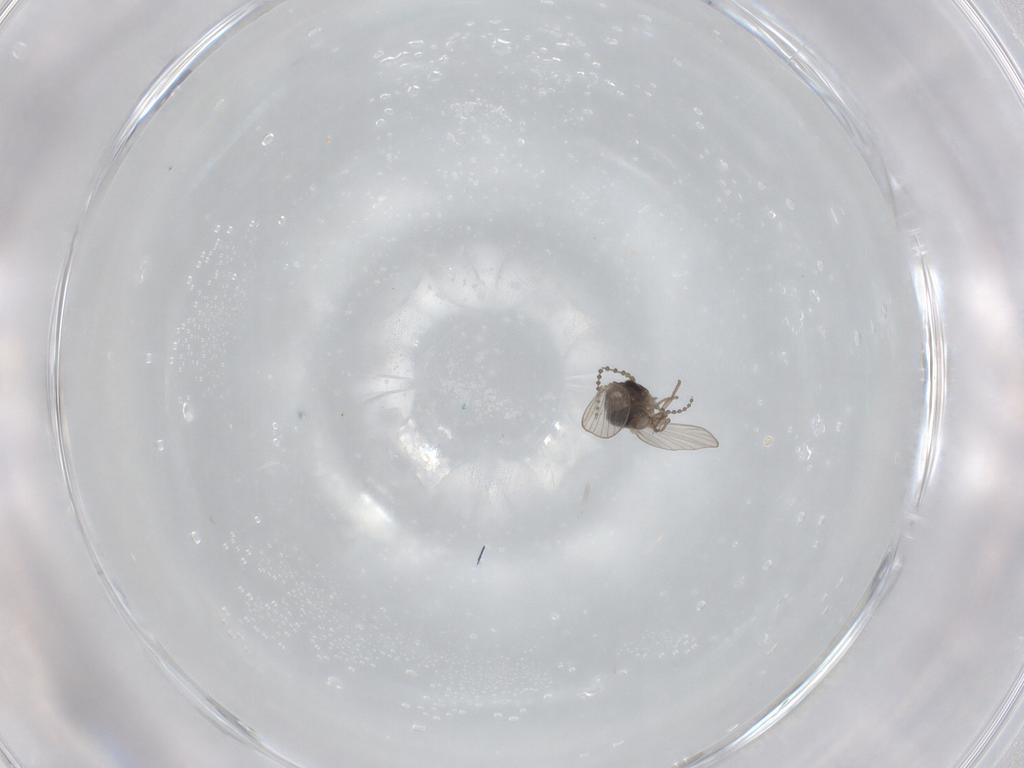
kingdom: Animalia
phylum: Arthropoda
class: Insecta
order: Diptera
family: Psychodidae
